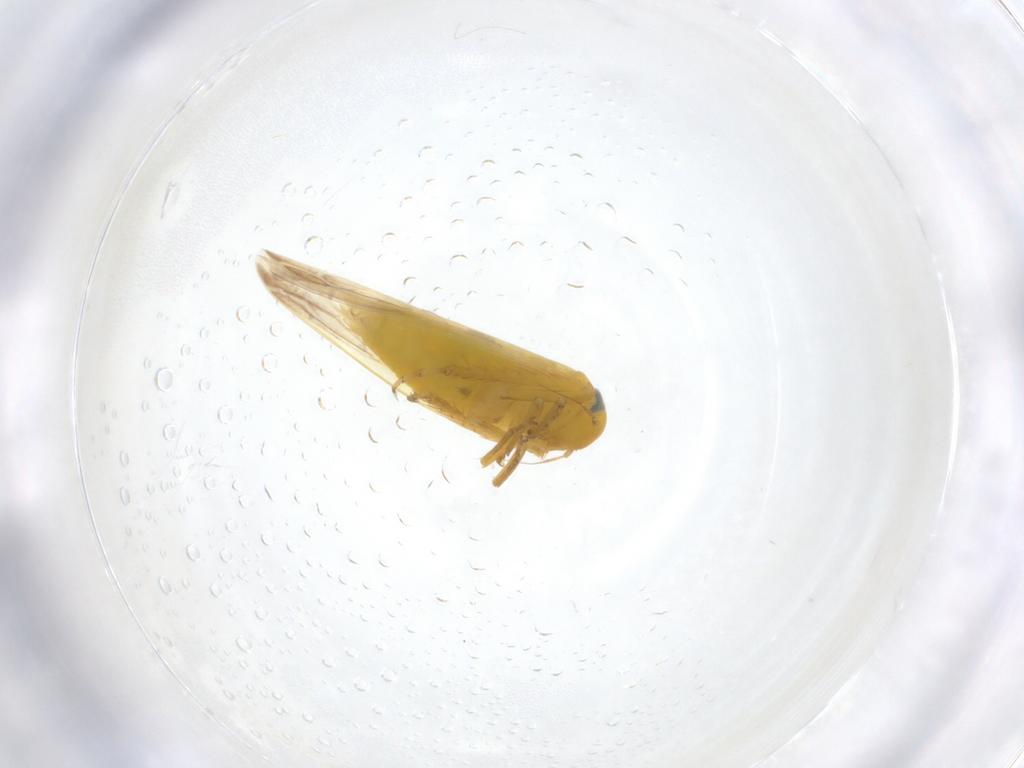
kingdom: Animalia
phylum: Arthropoda
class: Insecta
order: Hemiptera
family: Cicadellidae
